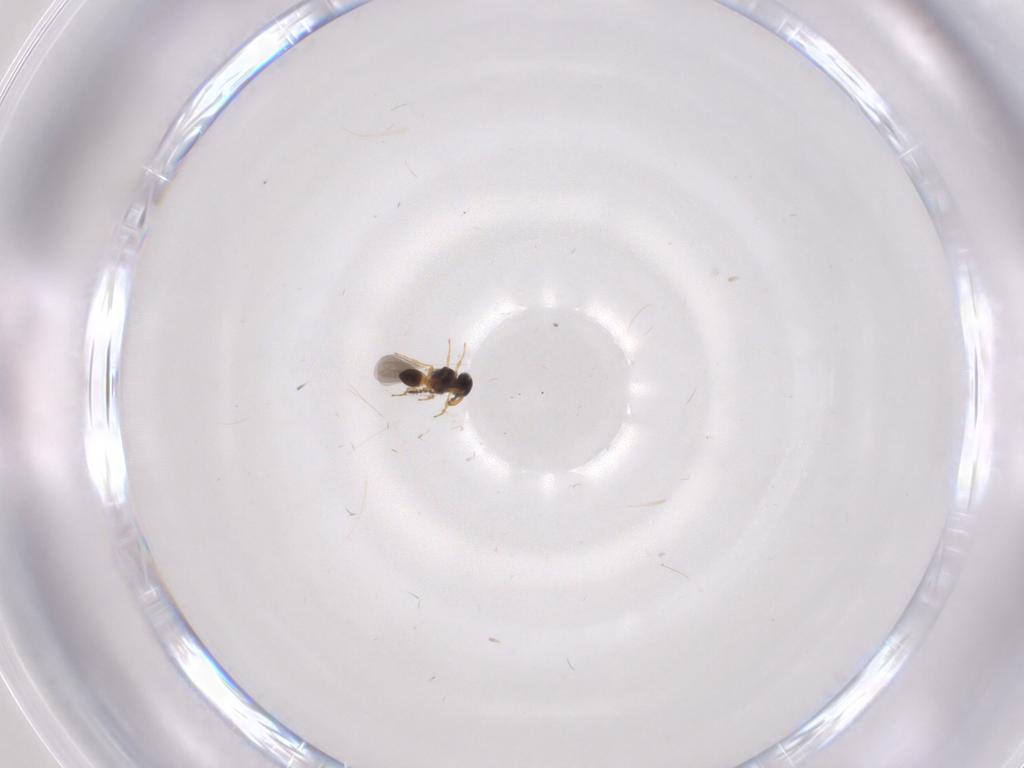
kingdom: Animalia
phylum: Arthropoda
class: Insecta
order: Hymenoptera
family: Platygastridae
